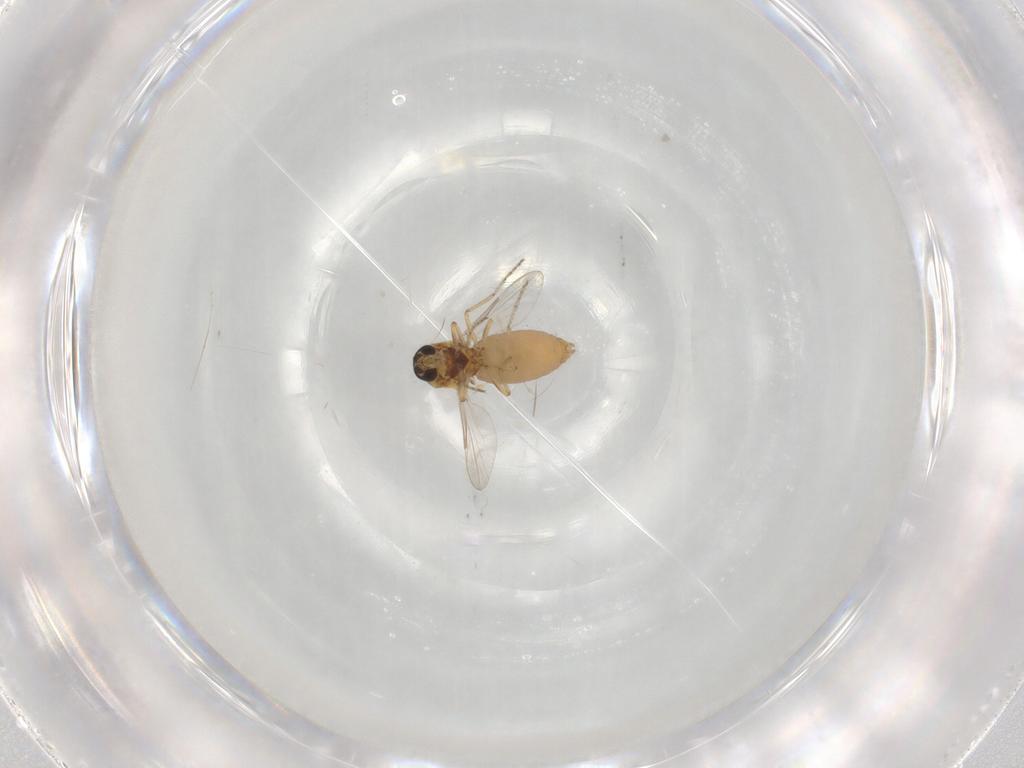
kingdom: Animalia
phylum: Arthropoda
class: Insecta
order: Diptera
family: Ceratopogonidae
